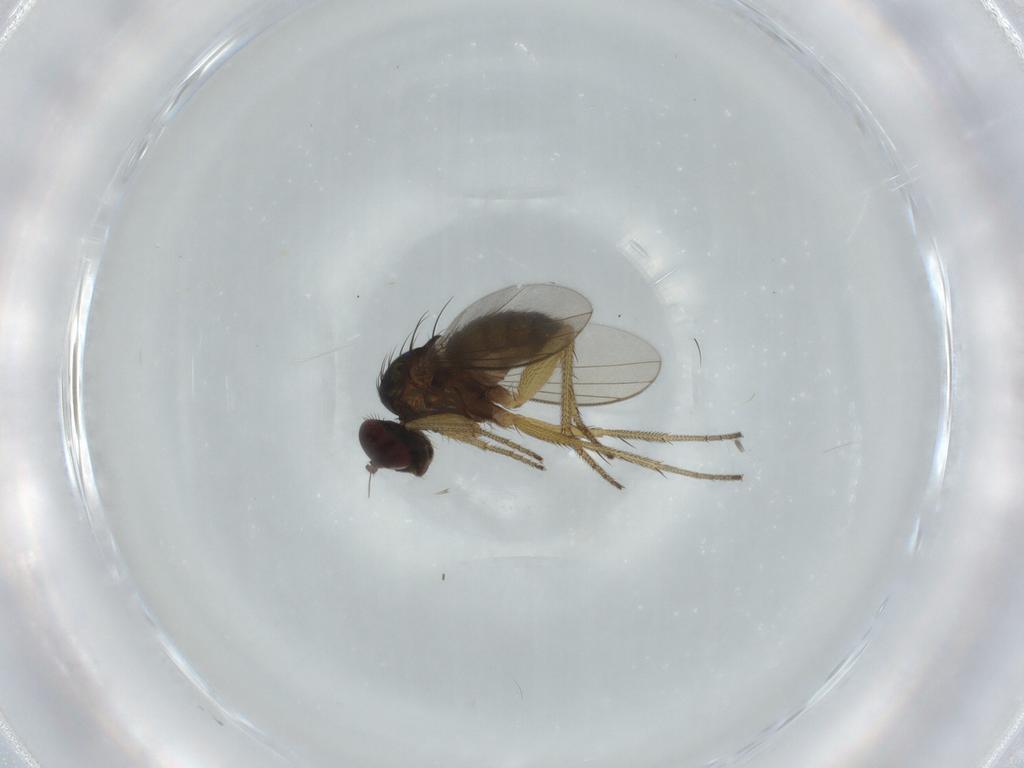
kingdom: Animalia
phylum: Arthropoda
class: Insecta
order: Diptera
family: Dolichopodidae
